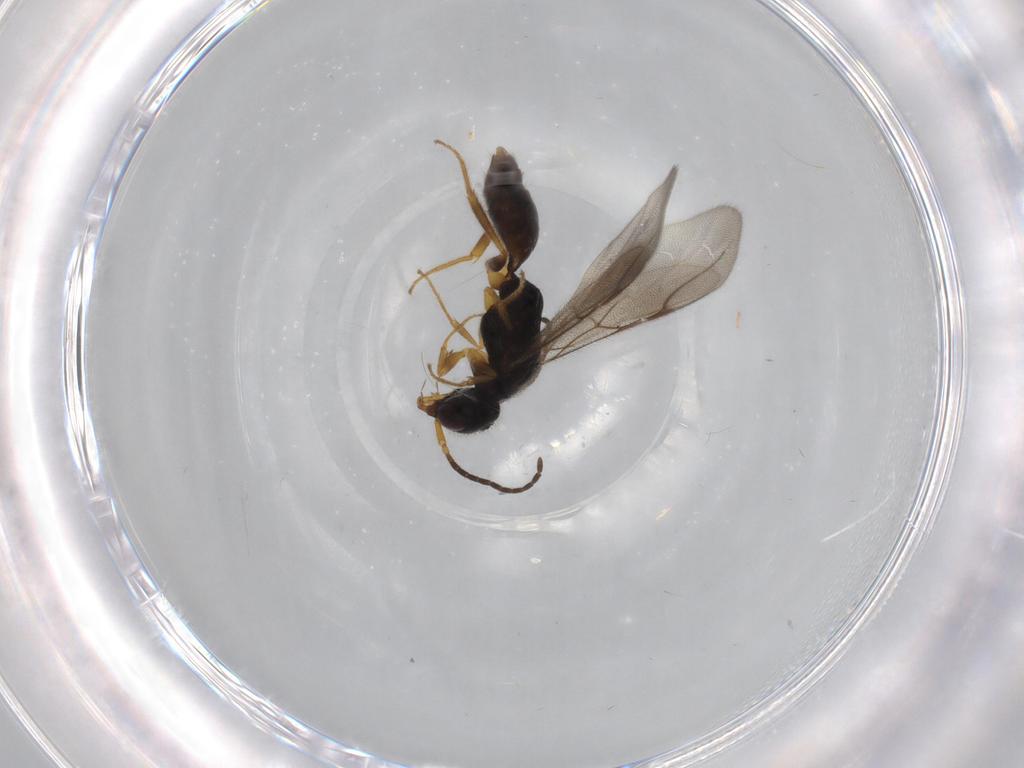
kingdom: Animalia
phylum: Arthropoda
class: Insecta
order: Hymenoptera
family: Bethylidae
